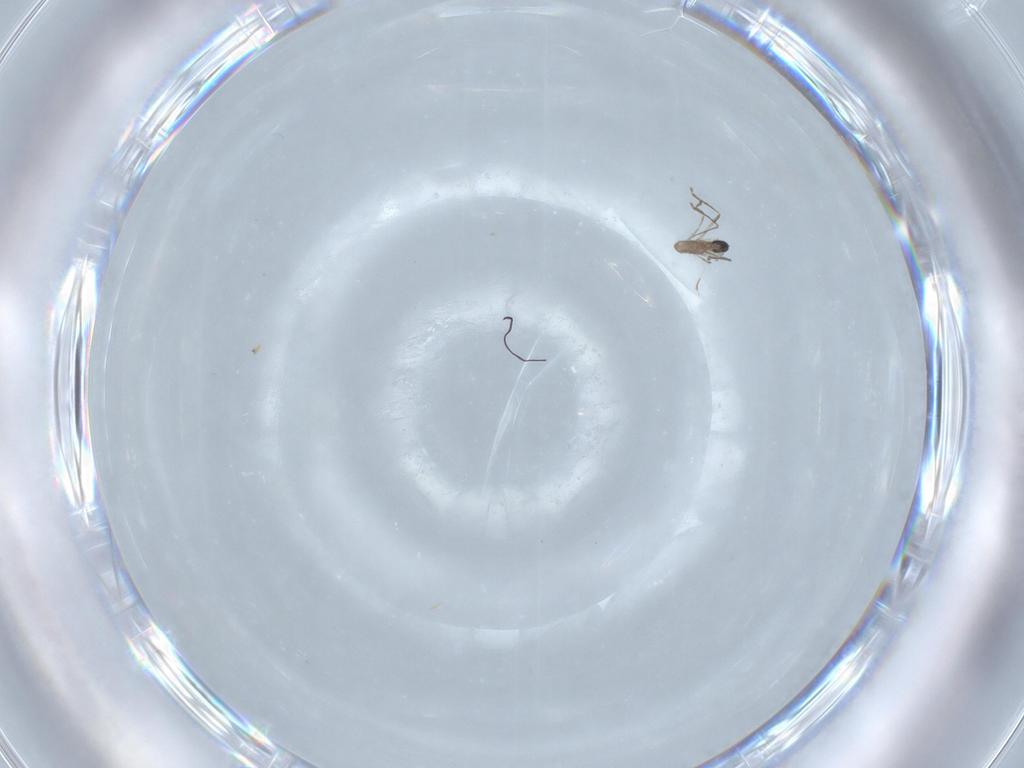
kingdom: Animalia
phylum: Arthropoda
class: Insecta
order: Diptera
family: Cecidomyiidae
